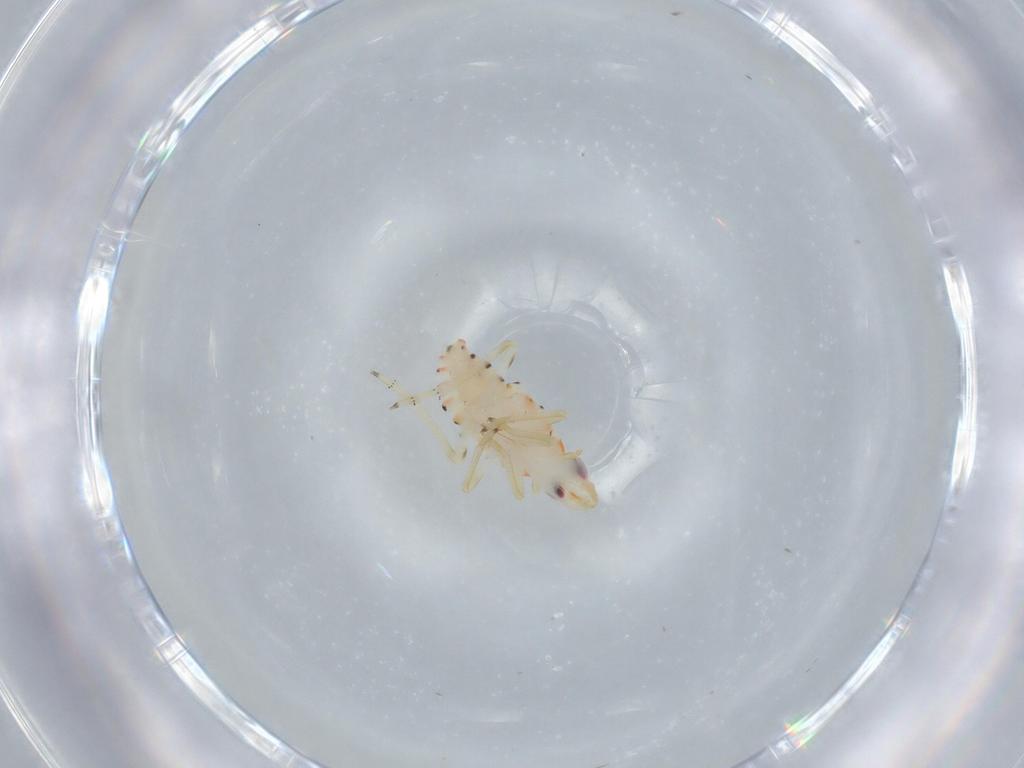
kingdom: Animalia
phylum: Arthropoda
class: Insecta
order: Hemiptera
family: Tropiduchidae
